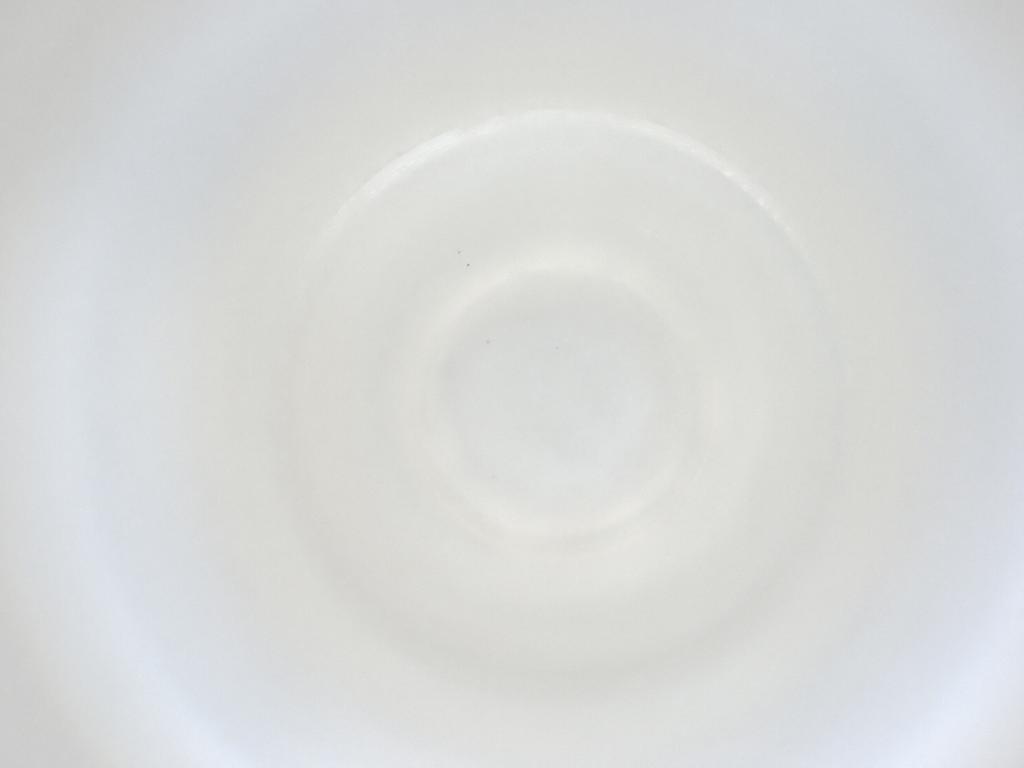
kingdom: Animalia
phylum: Arthropoda
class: Insecta
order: Diptera
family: Cecidomyiidae
